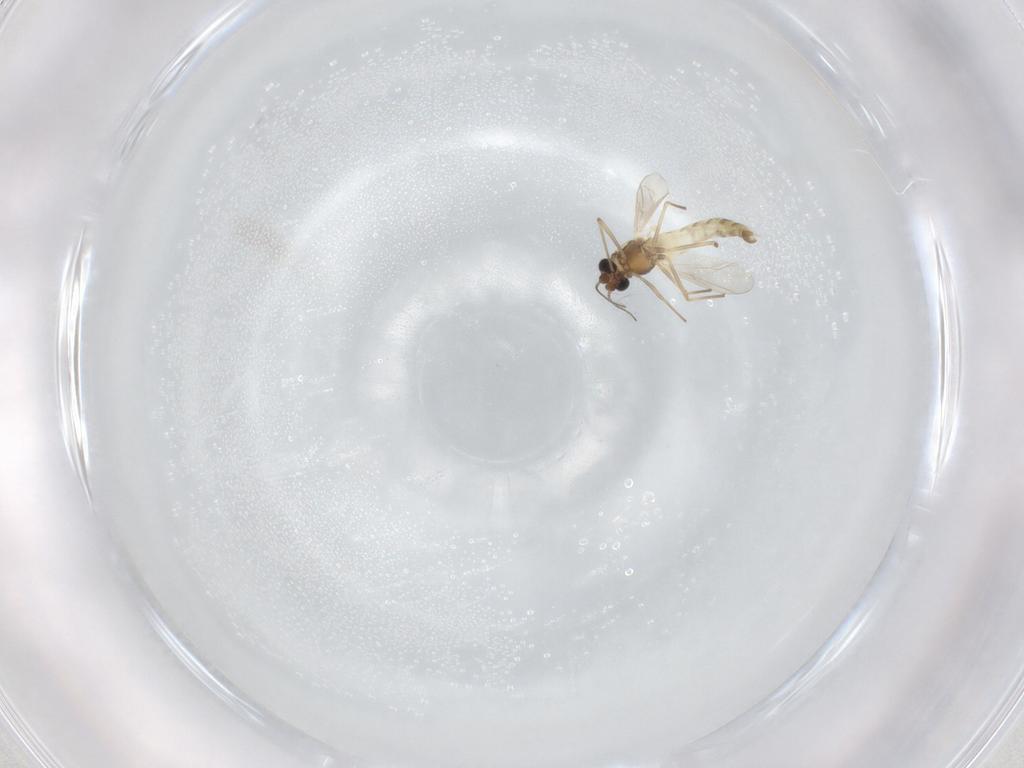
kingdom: Animalia
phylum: Arthropoda
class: Insecta
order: Diptera
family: Chironomidae
